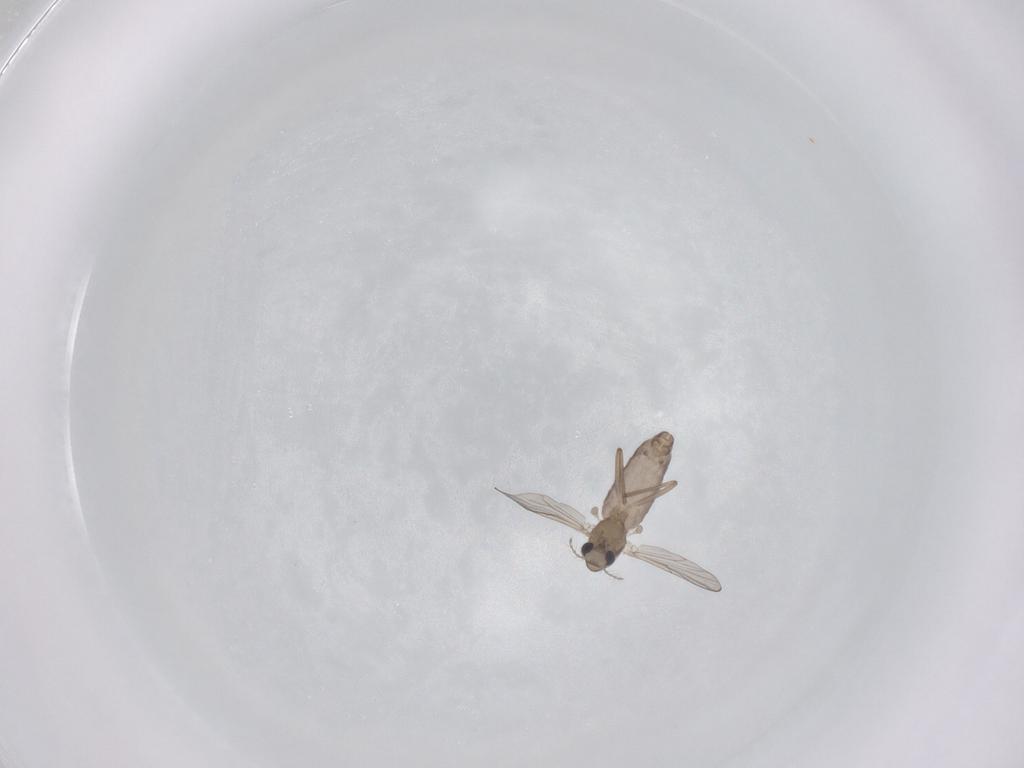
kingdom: Animalia
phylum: Arthropoda
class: Insecta
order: Diptera
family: Chironomidae
